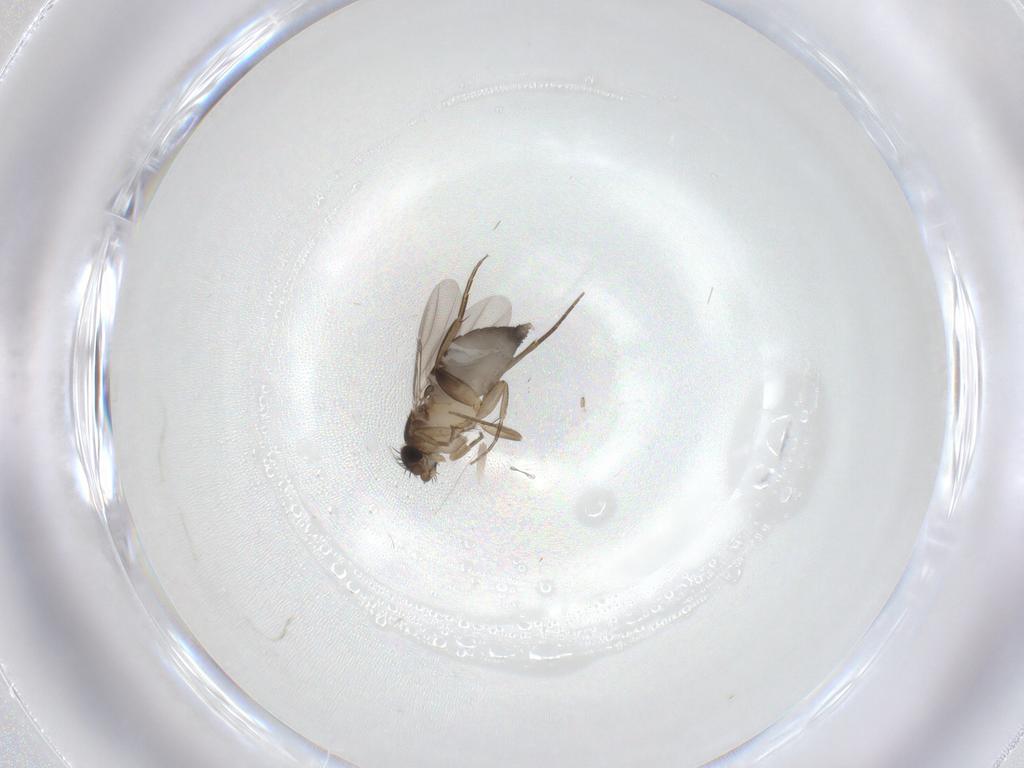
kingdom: Animalia
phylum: Arthropoda
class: Insecta
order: Diptera
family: Phoridae
